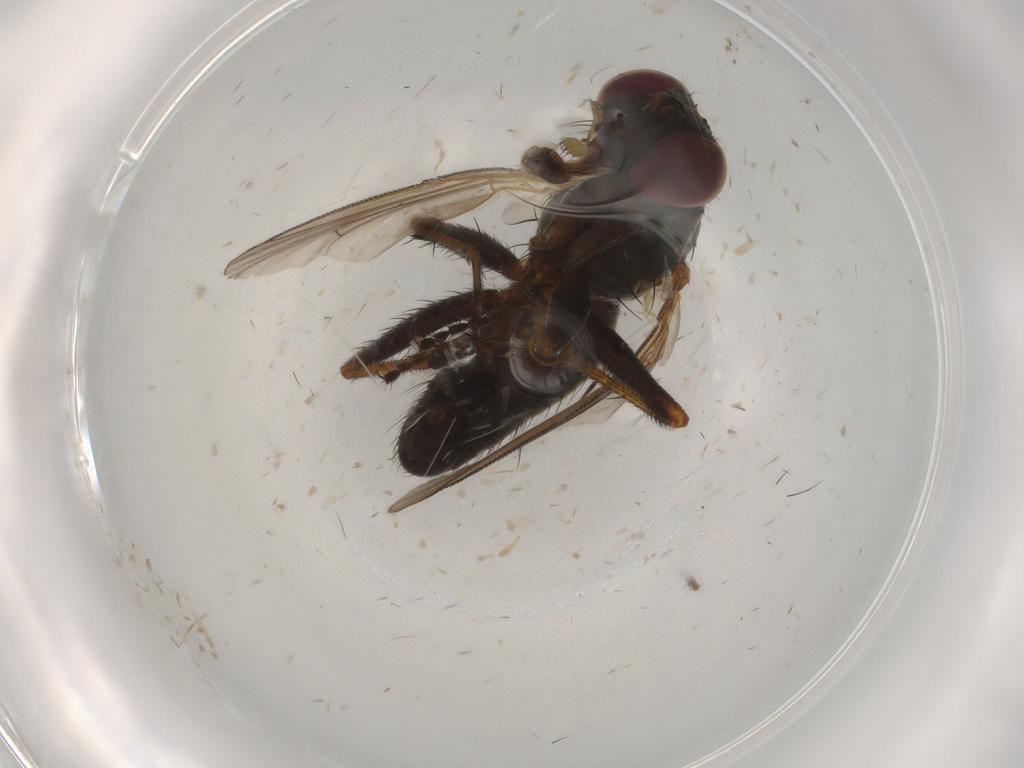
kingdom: Animalia
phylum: Arthropoda
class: Insecta
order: Diptera
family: Muscidae
